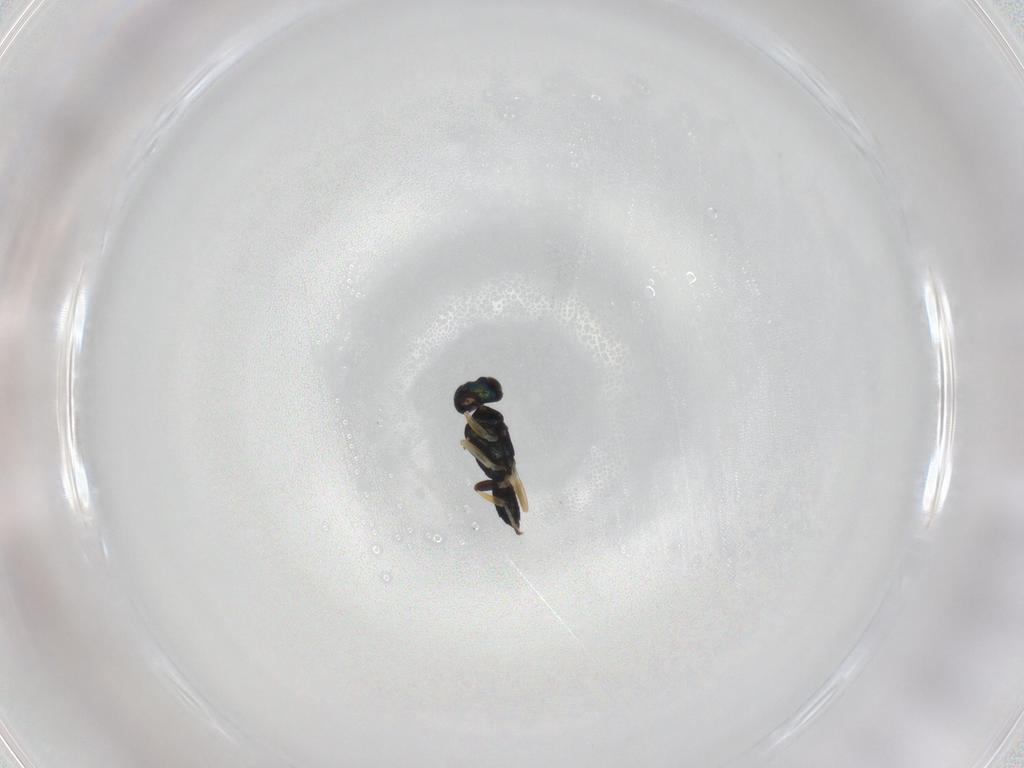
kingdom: Animalia
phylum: Arthropoda
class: Insecta
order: Hymenoptera
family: Eupelmidae
